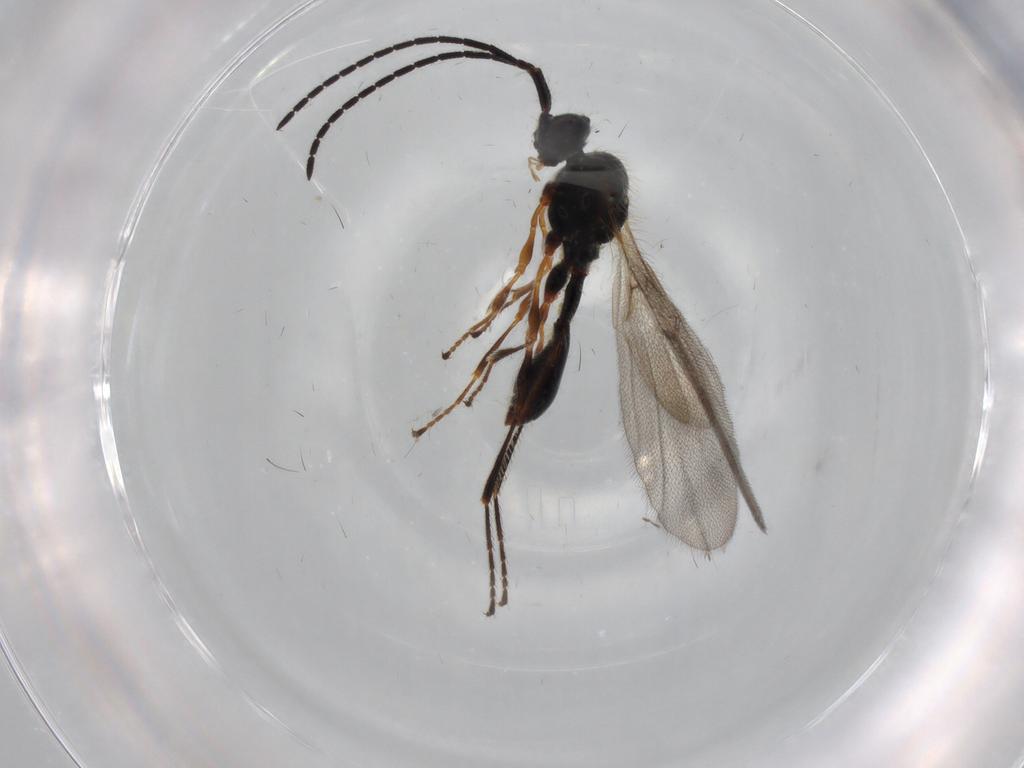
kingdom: Animalia
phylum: Arthropoda
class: Insecta
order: Hymenoptera
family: Diapriidae
